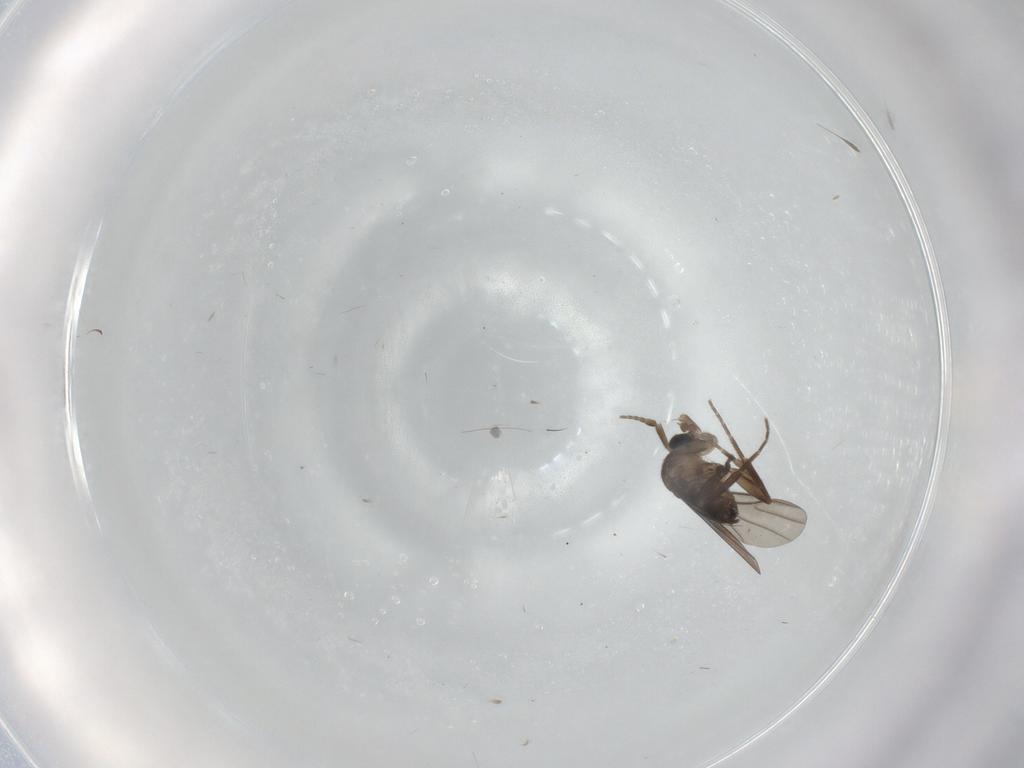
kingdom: Animalia
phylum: Arthropoda
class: Insecta
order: Diptera
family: Phoridae
